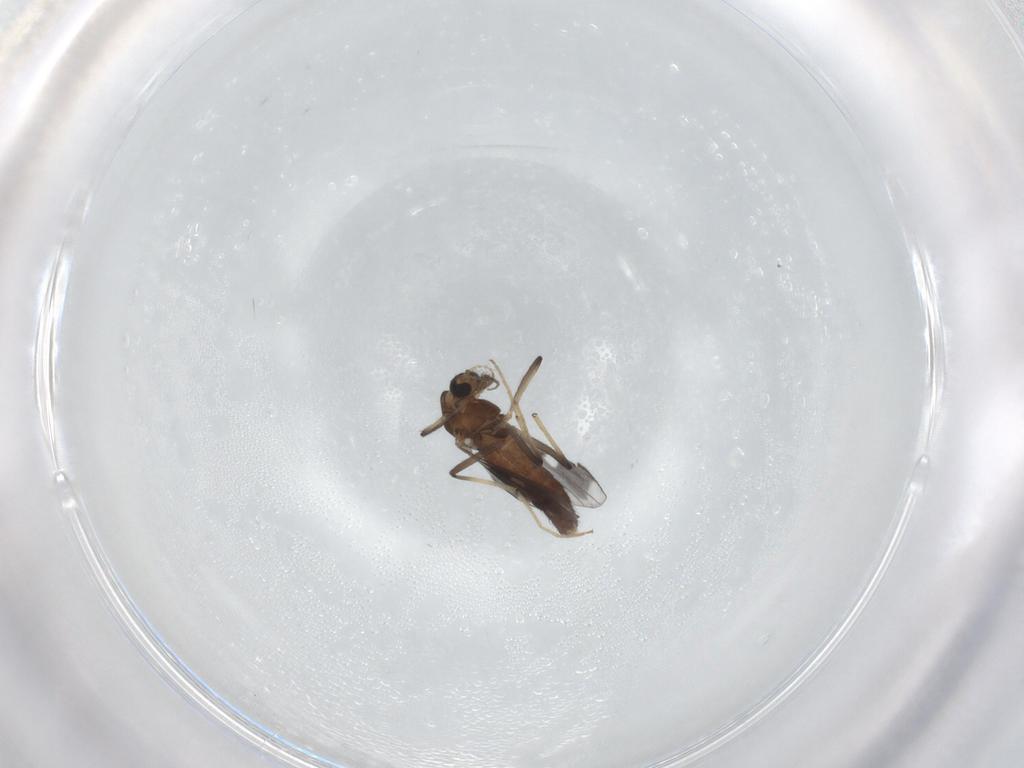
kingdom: Animalia
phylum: Arthropoda
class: Insecta
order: Diptera
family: Chironomidae
